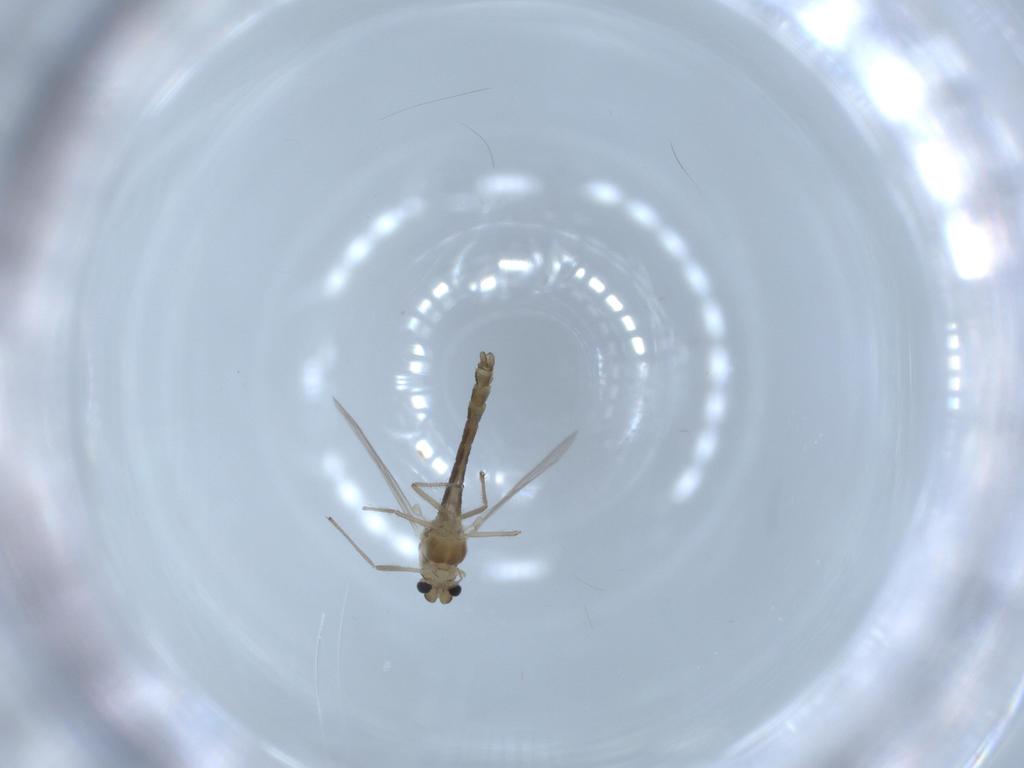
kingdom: Animalia
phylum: Arthropoda
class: Insecta
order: Diptera
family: Chironomidae
